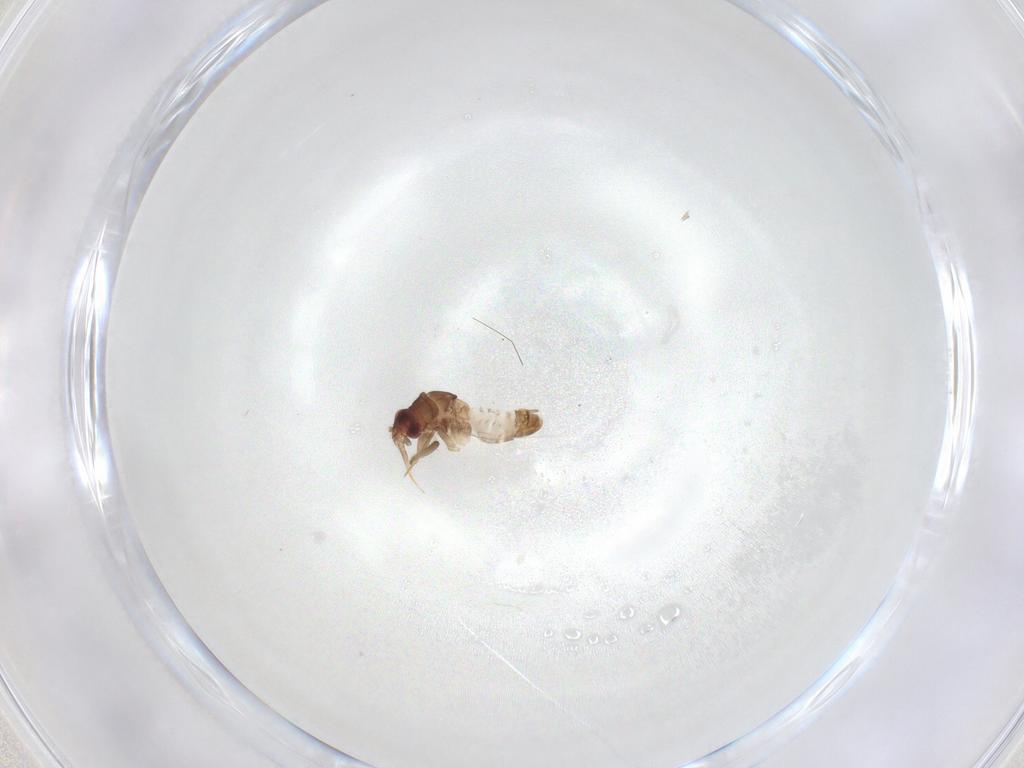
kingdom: Animalia
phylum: Arthropoda
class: Insecta
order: Hemiptera
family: Ceratocombidae
